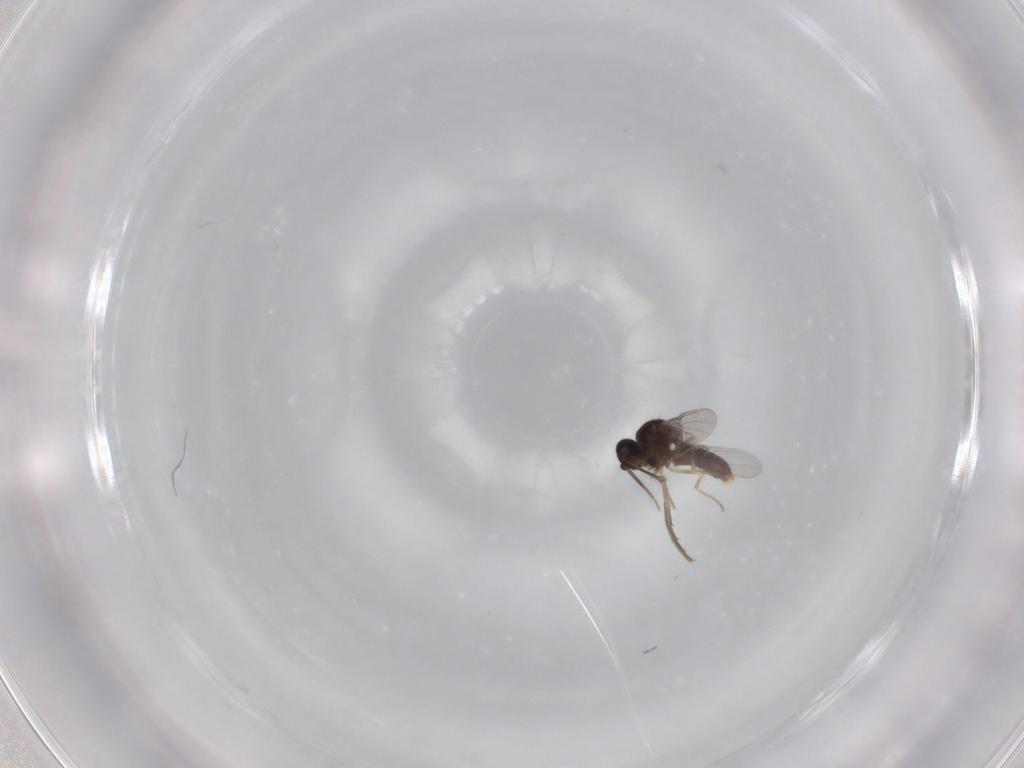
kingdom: Animalia
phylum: Arthropoda
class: Insecta
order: Diptera
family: Ceratopogonidae
